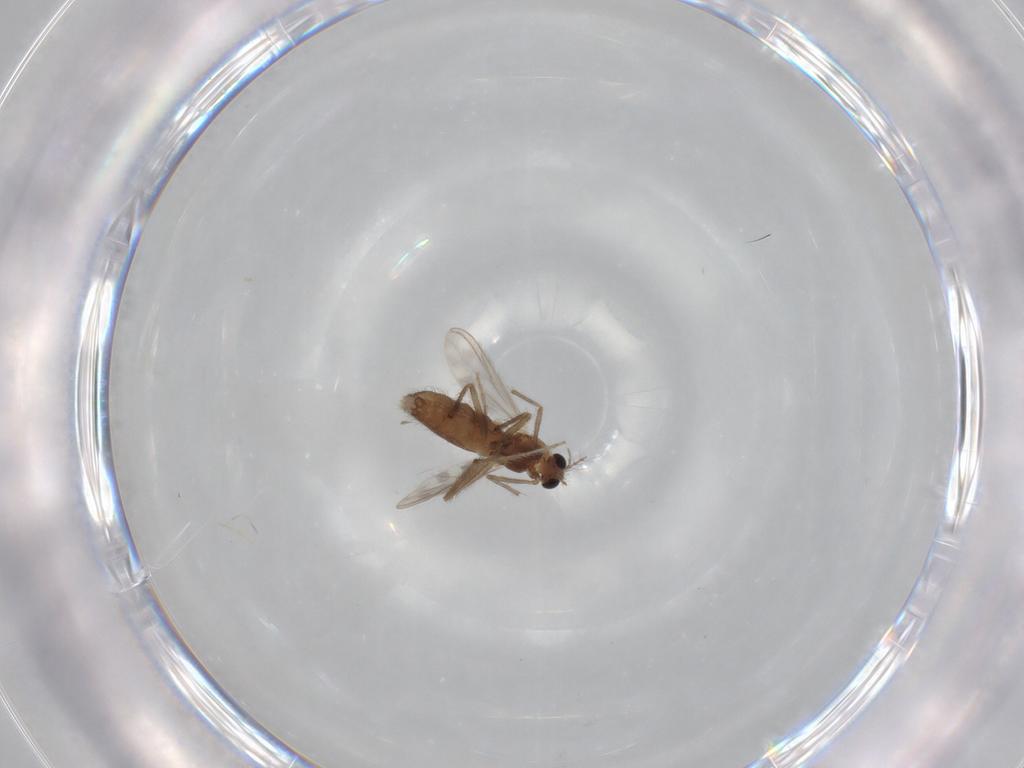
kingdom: Animalia
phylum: Arthropoda
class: Insecta
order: Diptera
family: Chironomidae
